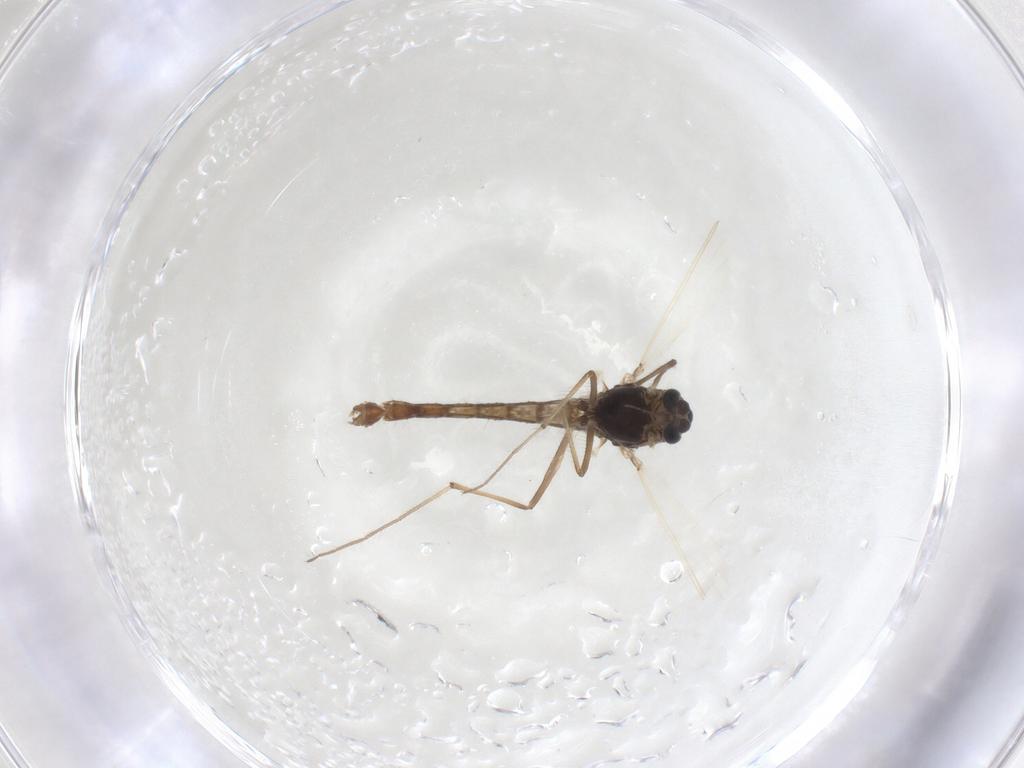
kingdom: Animalia
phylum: Arthropoda
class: Insecta
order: Diptera
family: Chironomidae
